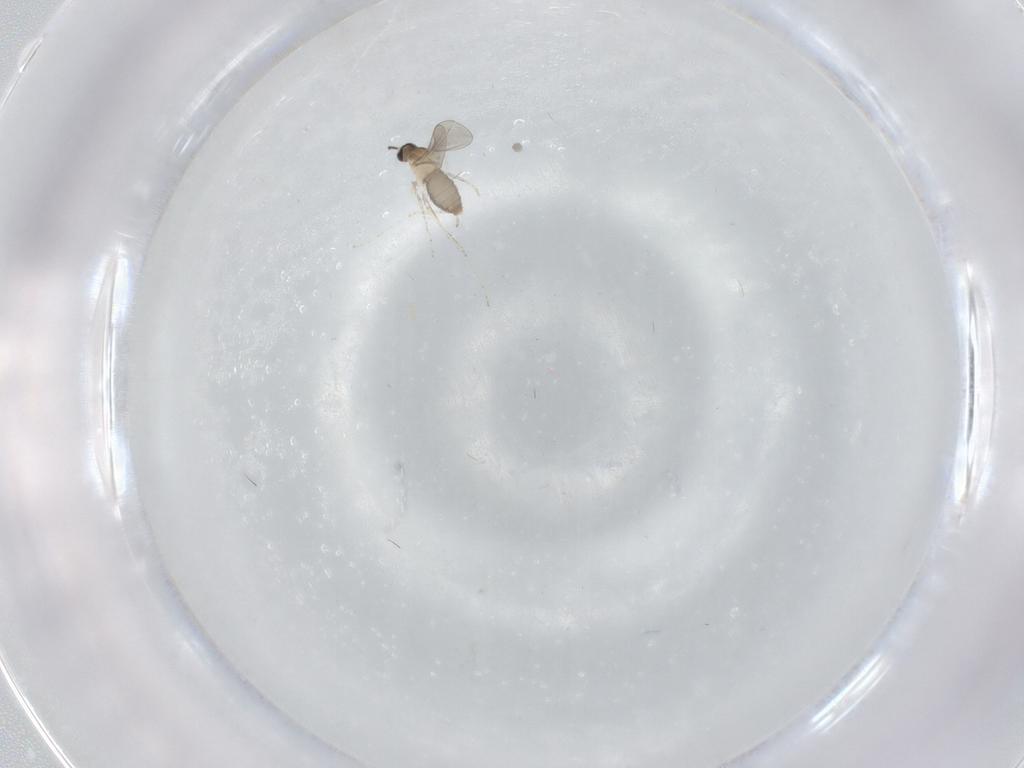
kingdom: Animalia
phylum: Arthropoda
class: Insecta
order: Diptera
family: Cecidomyiidae
